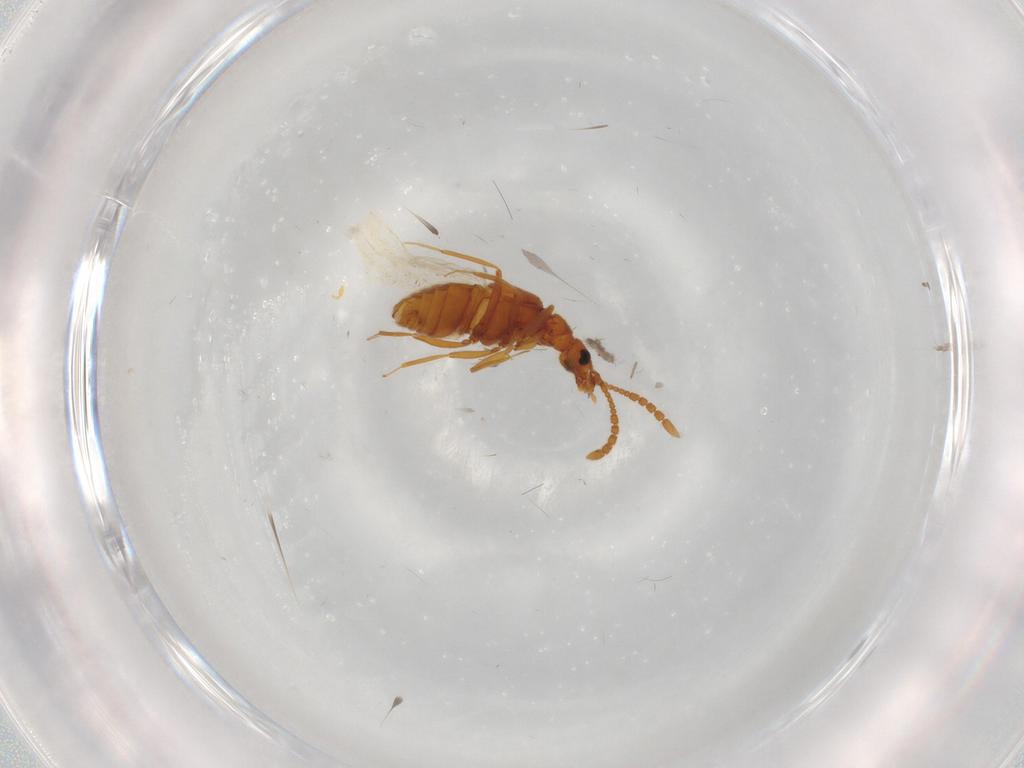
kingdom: Animalia
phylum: Arthropoda
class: Insecta
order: Coleoptera
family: Staphylinidae
